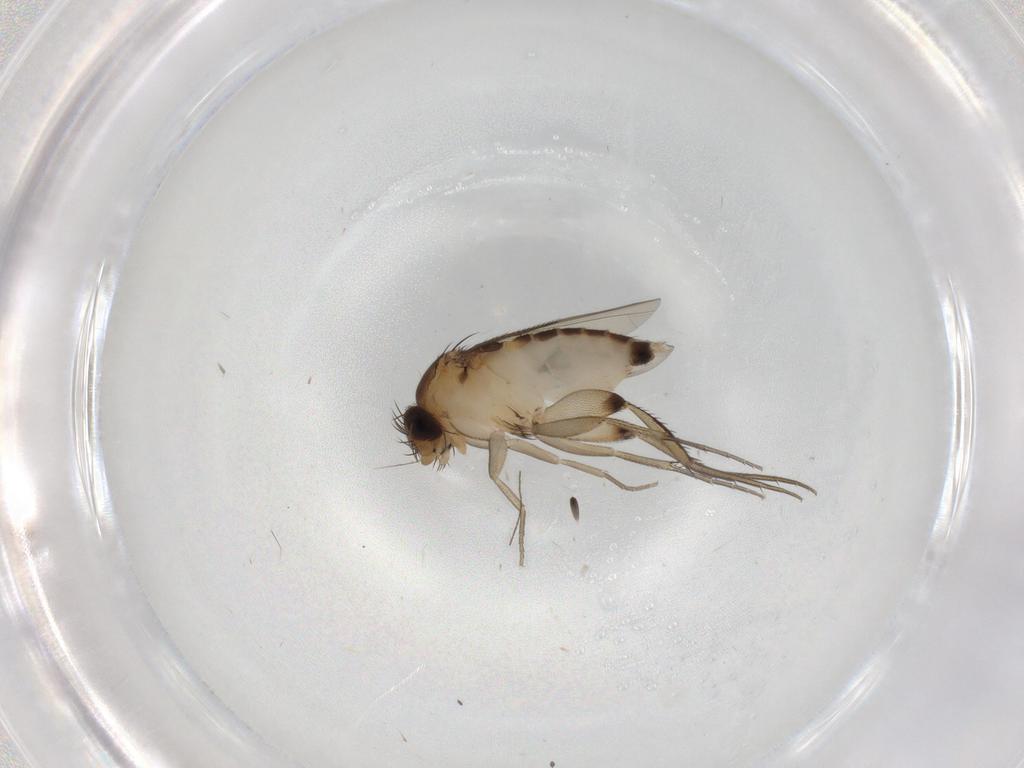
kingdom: Animalia
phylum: Arthropoda
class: Insecta
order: Diptera
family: Phoridae
